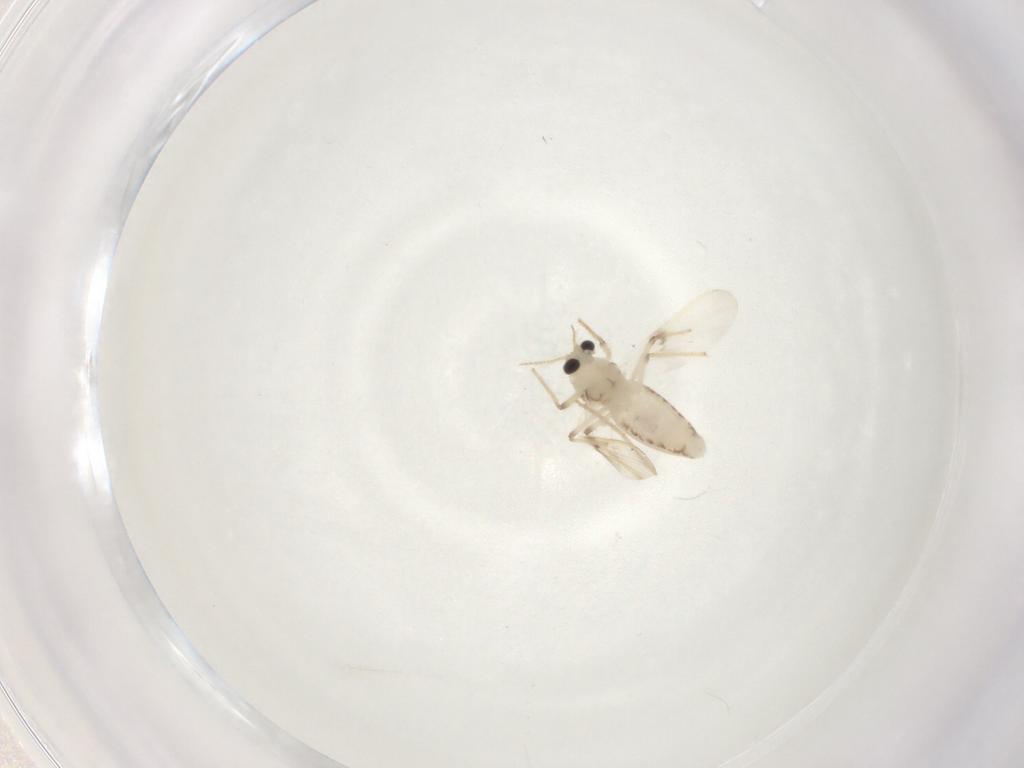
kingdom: Animalia
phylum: Arthropoda
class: Insecta
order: Diptera
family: Chironomidae
